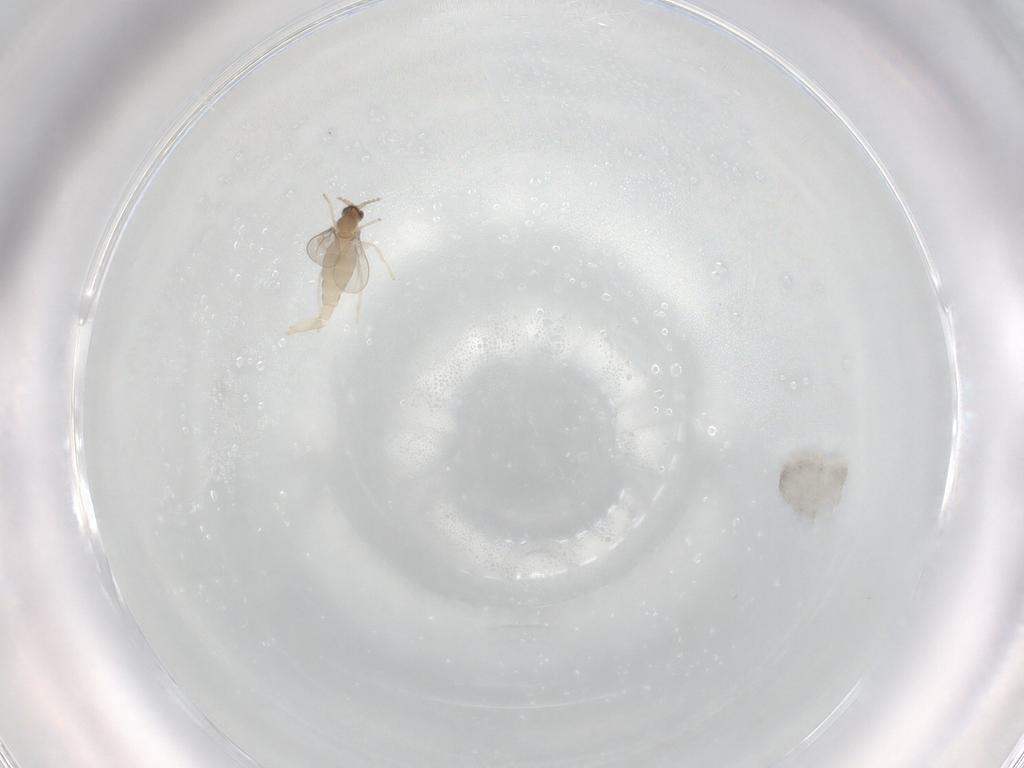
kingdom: Animalia
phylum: Arthropoda
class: Insecta
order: Diptera
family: Cecidomyiidae
